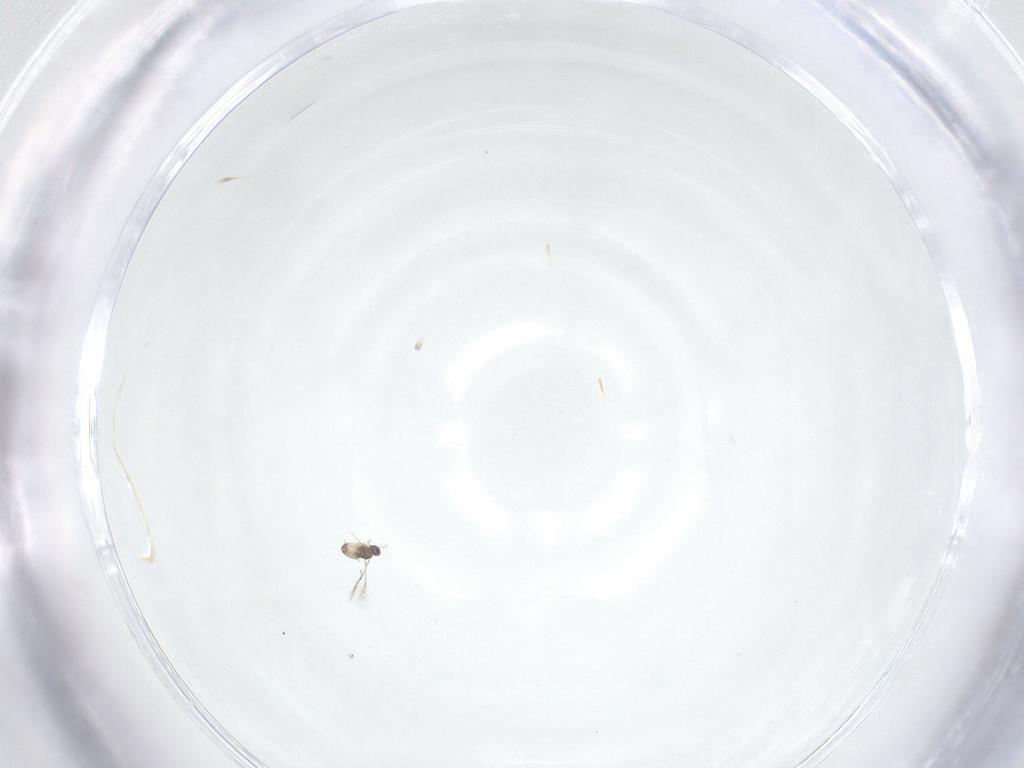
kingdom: Animalia
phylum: Arthropoda
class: Insecta
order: Hymenoptera
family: Mymaridae
